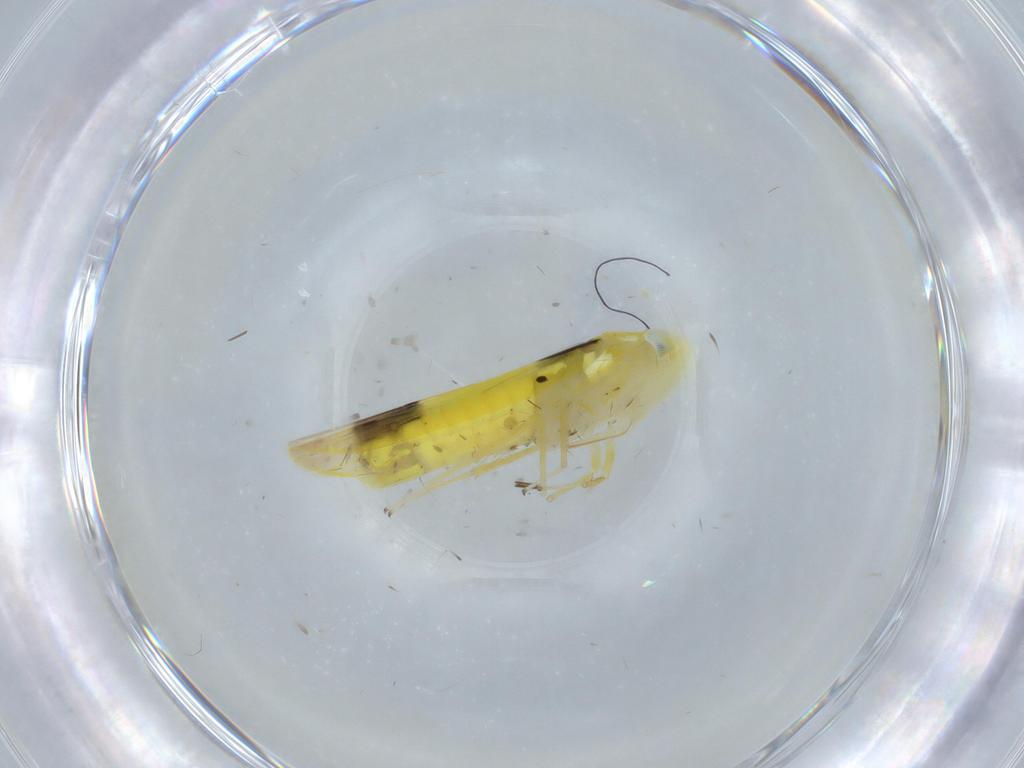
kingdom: Animalia
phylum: Arthropoda
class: Insecta
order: Hemiptera
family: Cicadellidae
